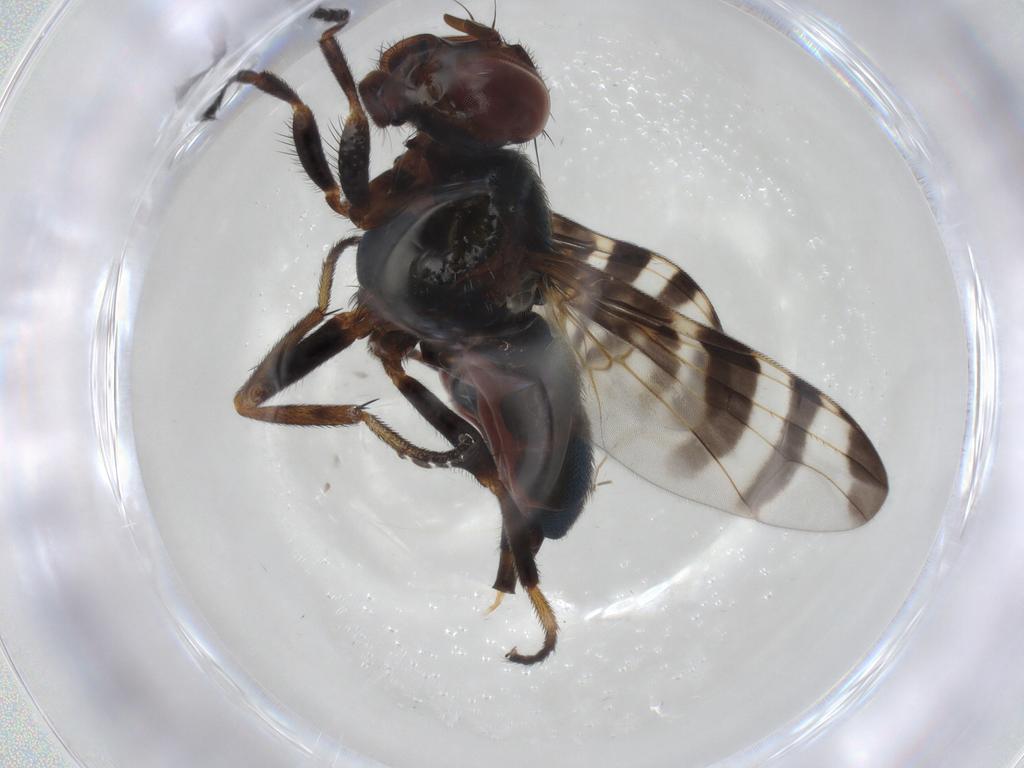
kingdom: Animalia
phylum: Arthropoda
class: Insecta
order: Diptera
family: Platystomatidae
